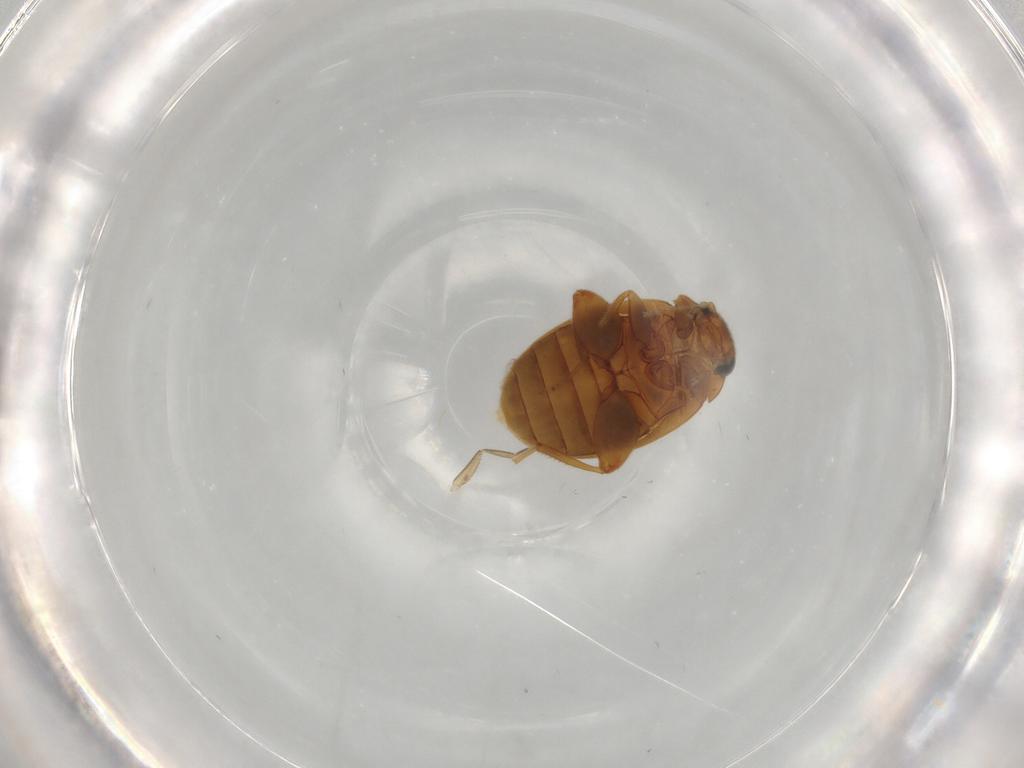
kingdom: Animalia
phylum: Arthropoda
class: Insecta
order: Coleoptera
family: Scirtidae
